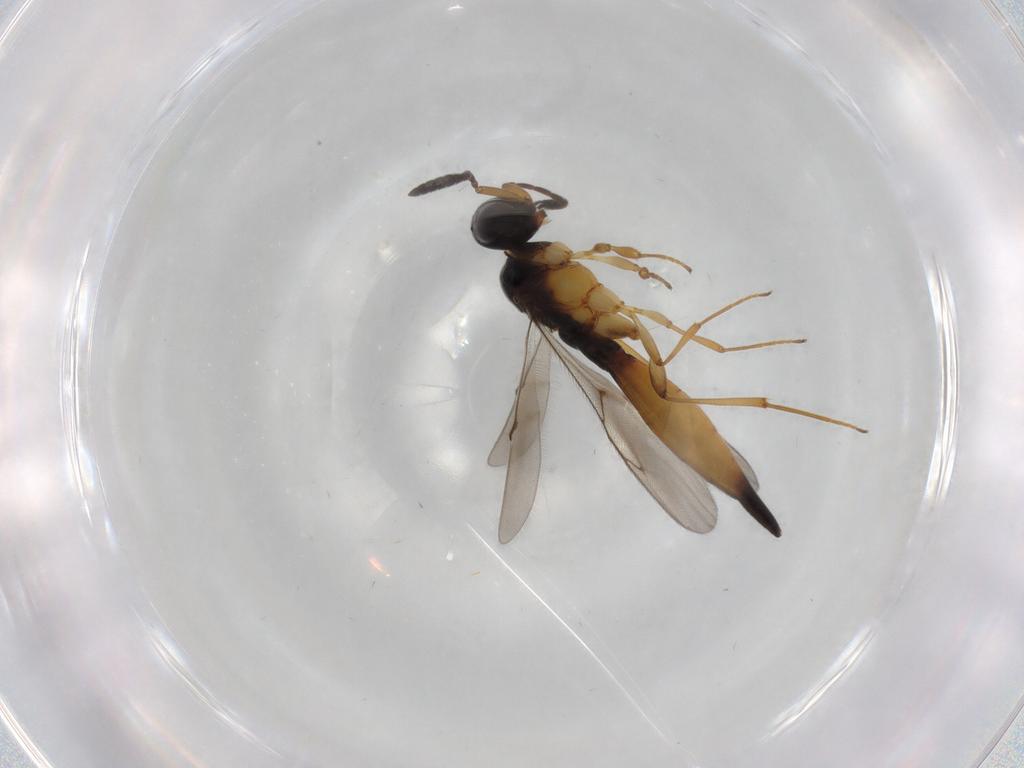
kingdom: Animalia
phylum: Arthropoda
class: Insecta
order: Hymenoptera
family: Scelionidae
